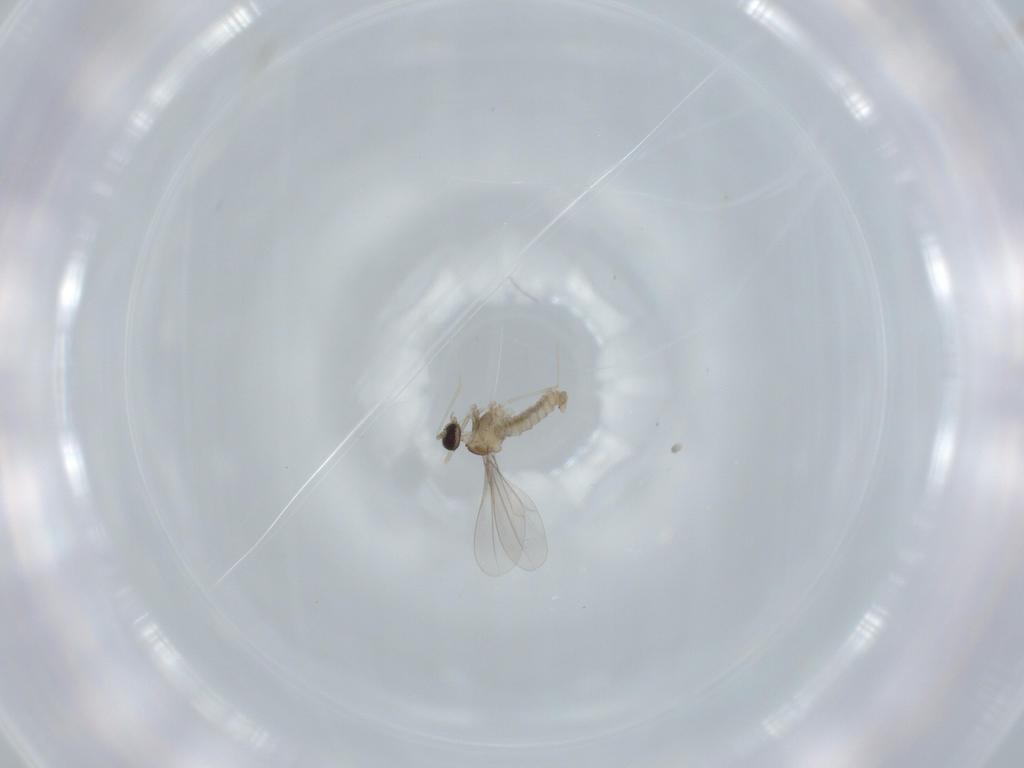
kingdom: Animalia
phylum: Arthropoda
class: Insecta
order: Diptera
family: Cecidomyiidae
